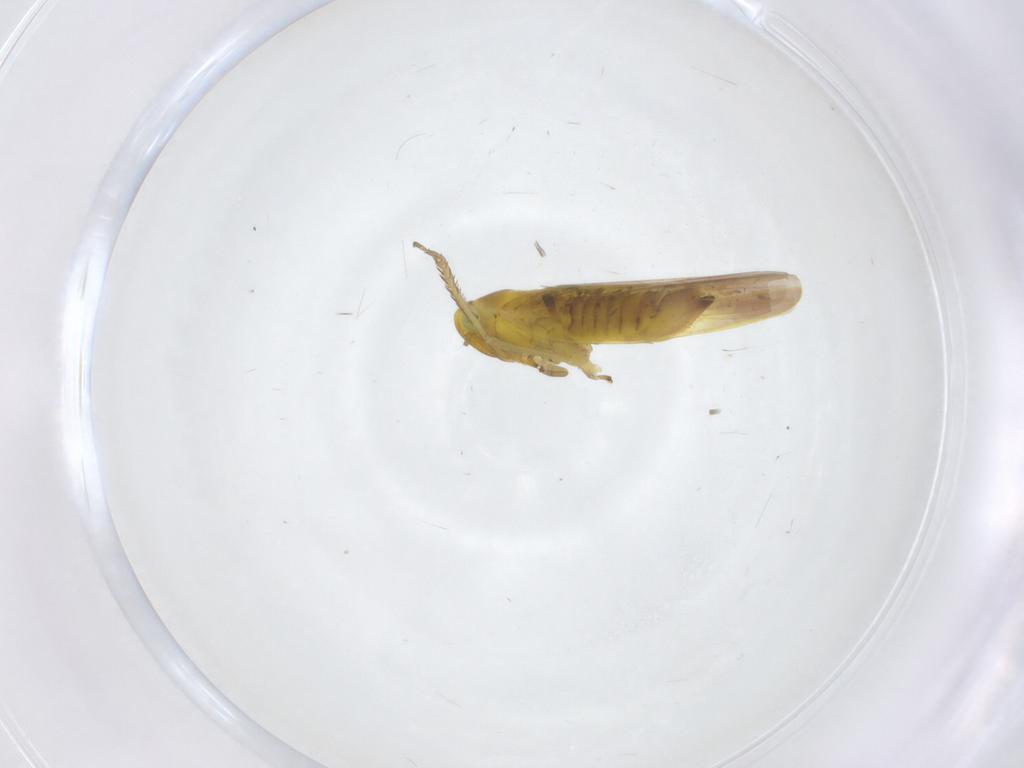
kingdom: Animalia
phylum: Arthropoda
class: Insecta
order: Hemiptera
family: Cicadellidae
